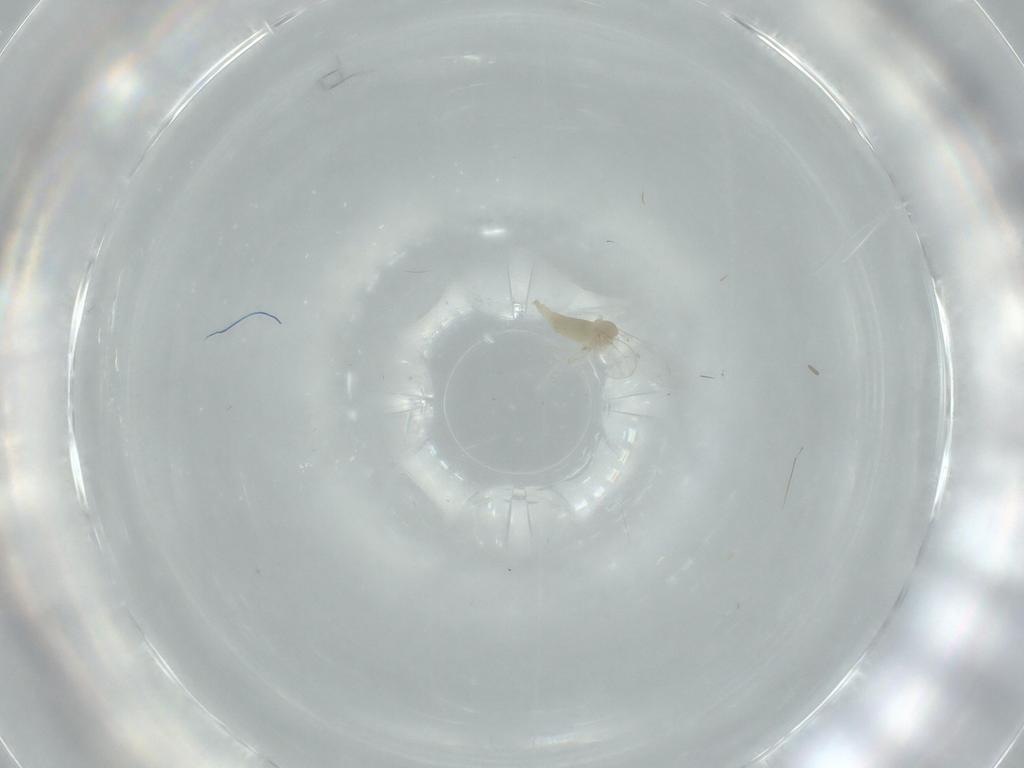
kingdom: Animalia
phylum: Arthropoda
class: Insecta
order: Diptera
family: Cecidomyiidae
